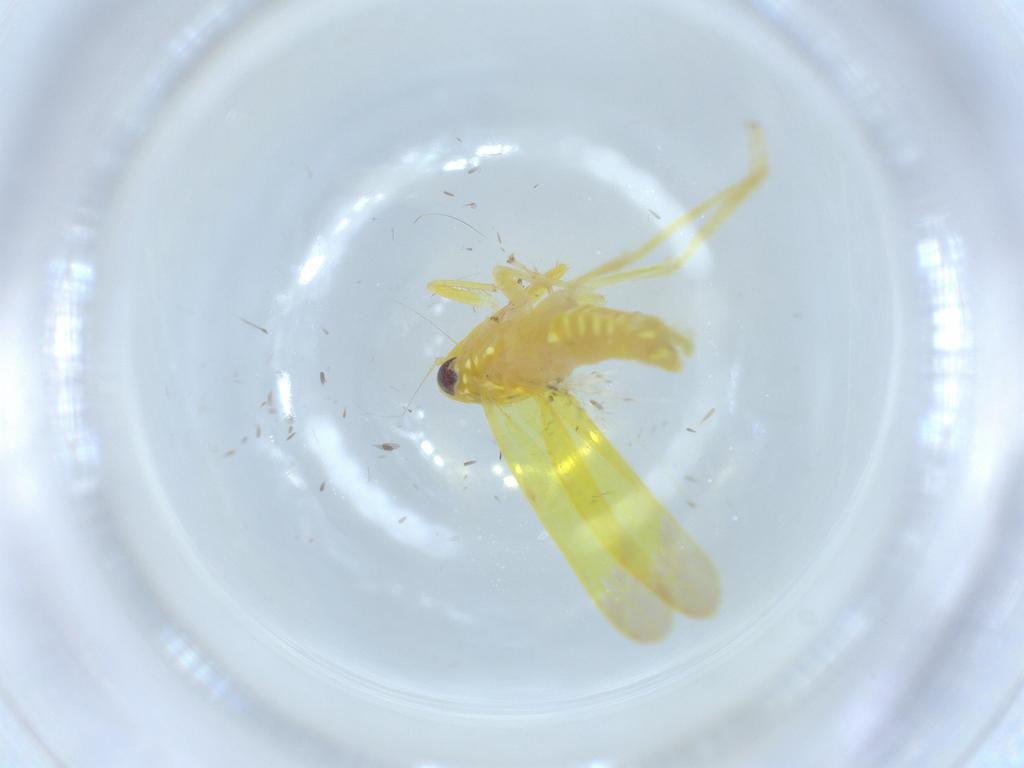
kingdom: Animalia
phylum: Arthropoda
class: Insecta
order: Hemiptera
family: Cicadellidae
